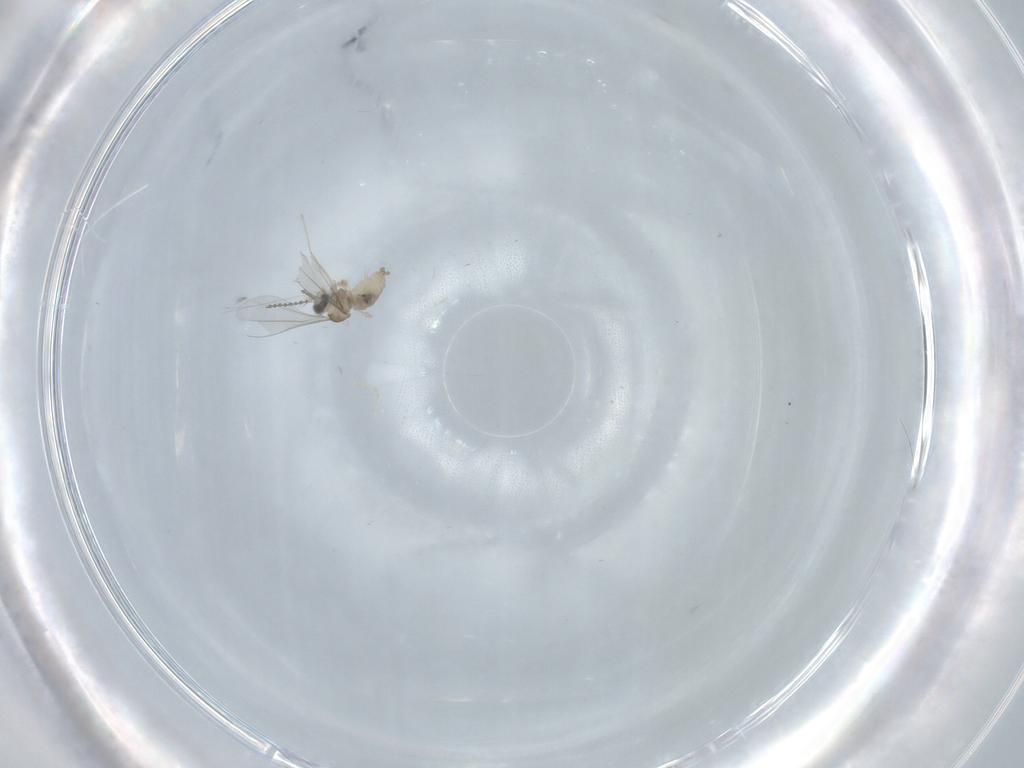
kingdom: Animalia
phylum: Arthropoda
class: Insecta
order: Diptera
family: Cecidomyiidae
